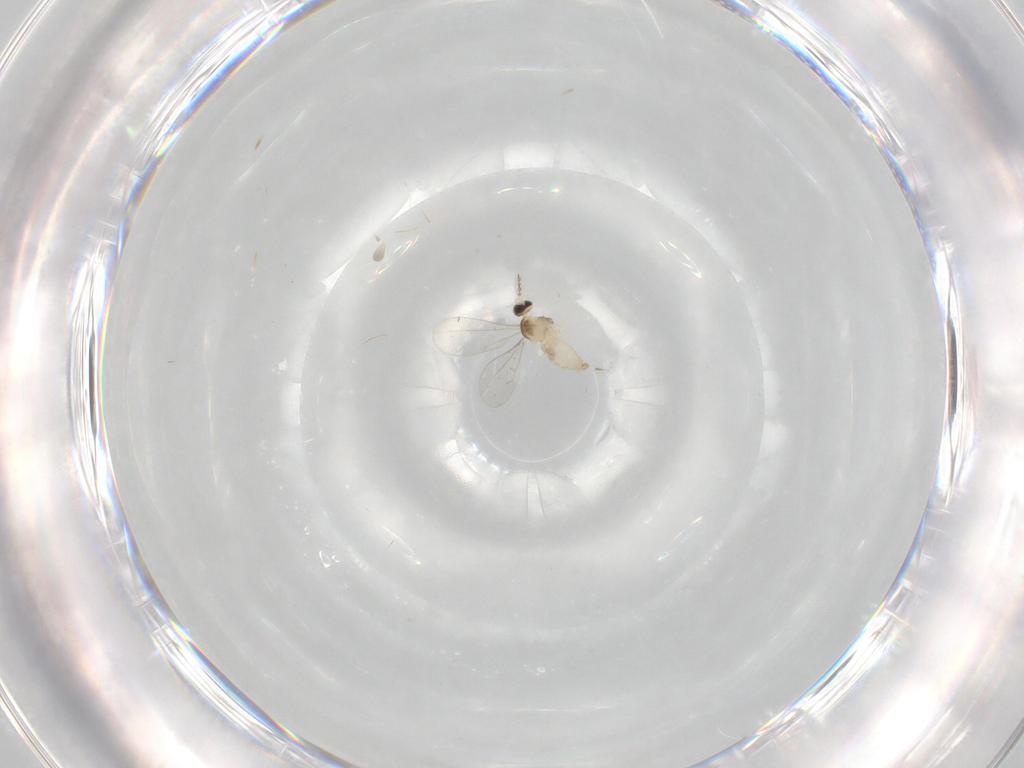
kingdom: Animalia
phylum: Arthropoda
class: Insecta
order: Diptera
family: Cecidomyiidae
